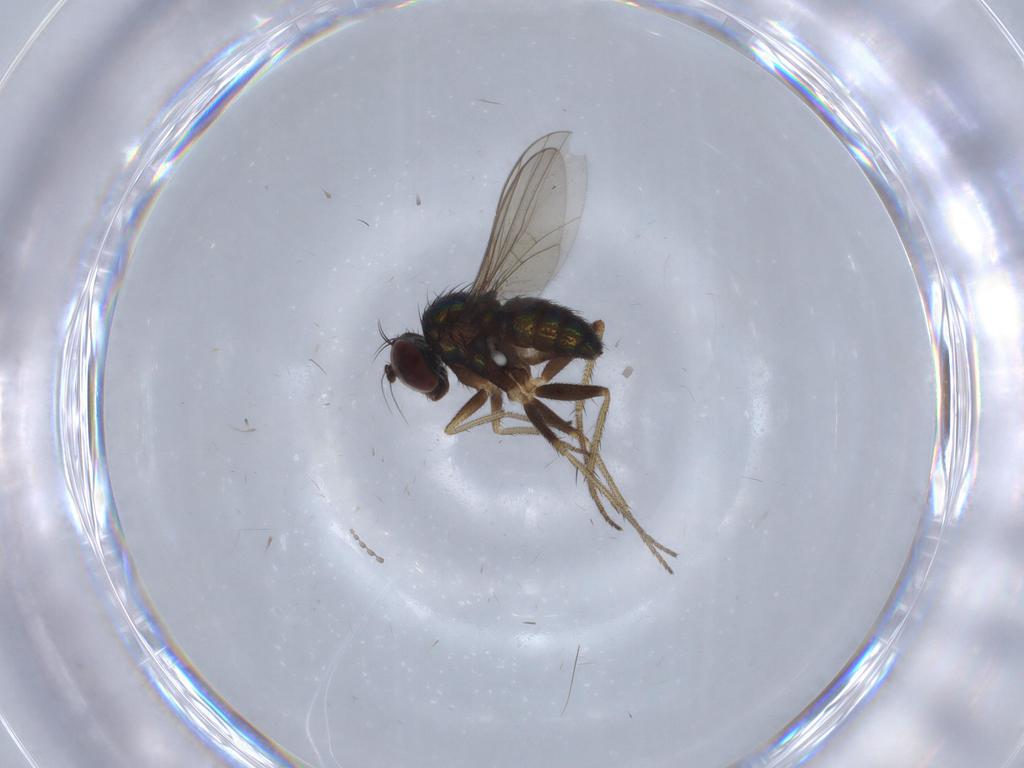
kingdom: Animalia
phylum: Arthropoda
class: Insecta
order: Diptera
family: Dolichopodidae
